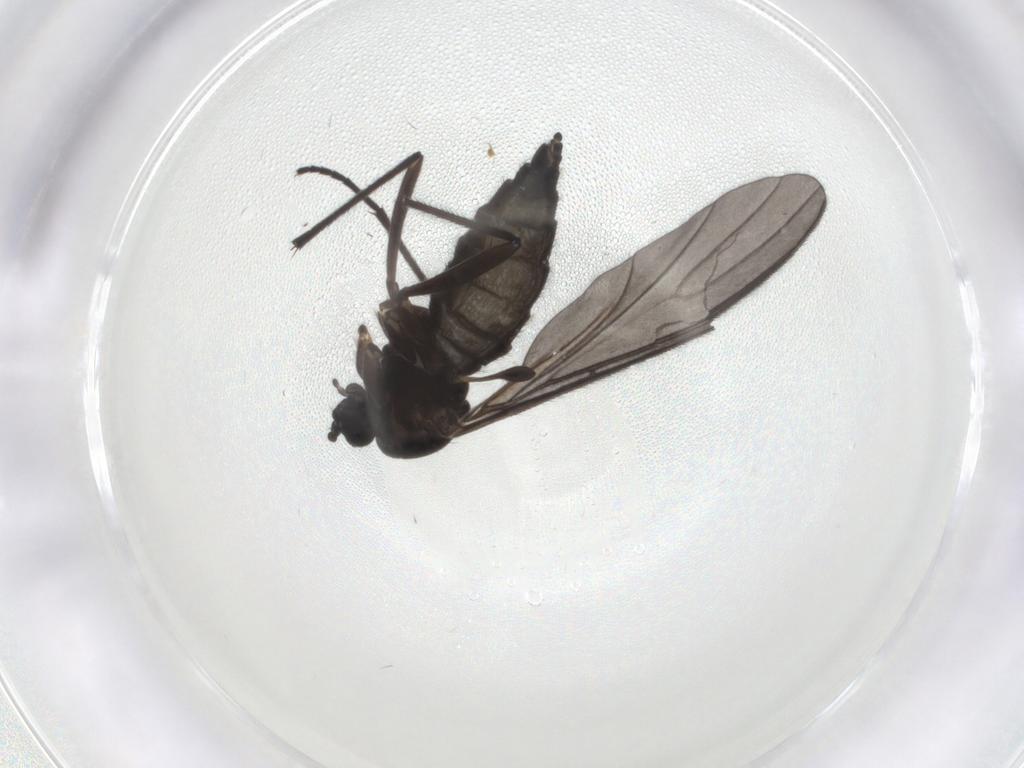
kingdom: Animalia
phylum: Arthropoda
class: Insecta
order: Diptera
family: Sciaridae
